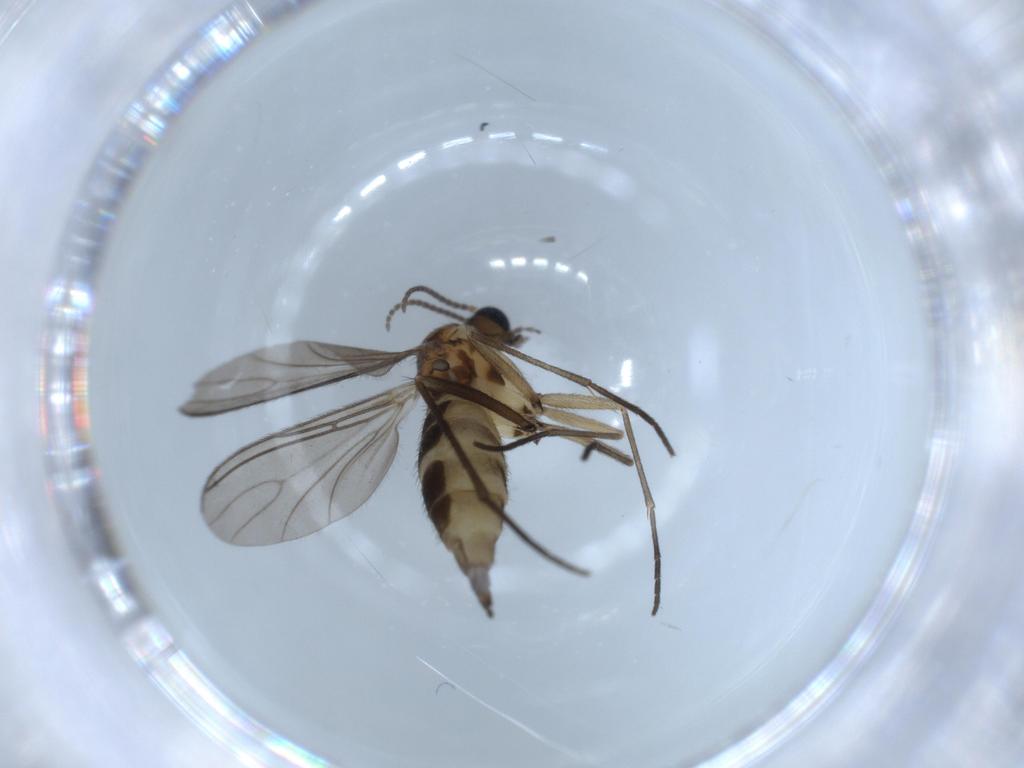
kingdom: Animalia
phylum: Arthropoda
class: Insecta
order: Diptera
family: Sciaridae
